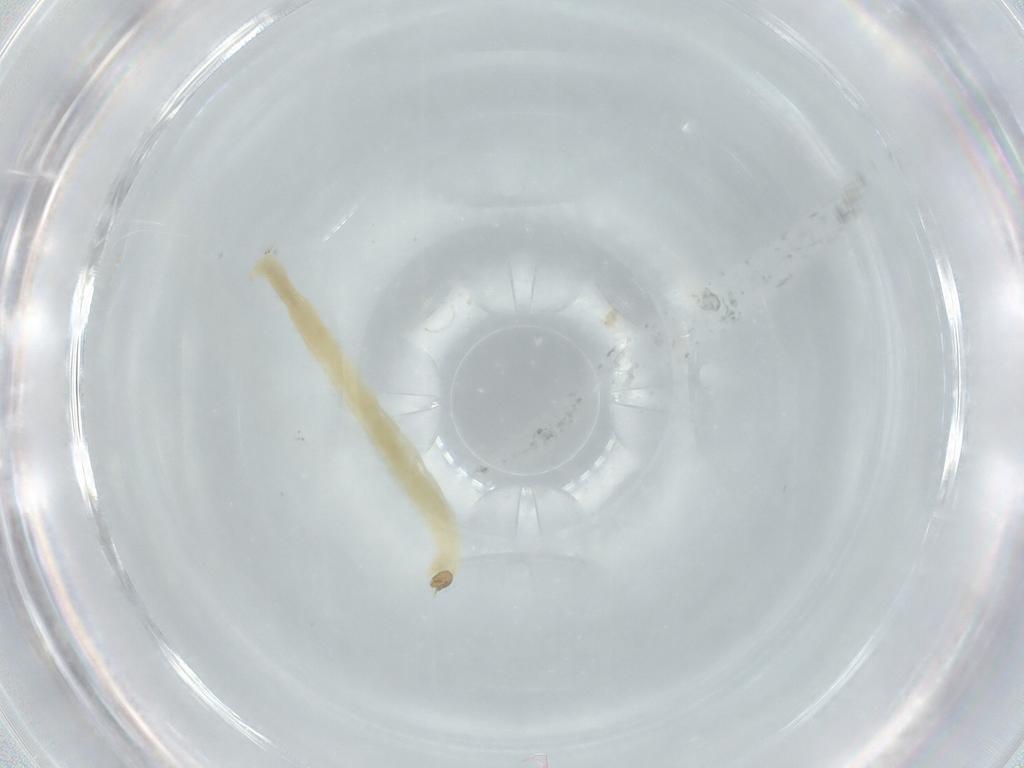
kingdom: Animalia
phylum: Arthropoda
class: Insecta
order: Diptera
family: Chironomidae
